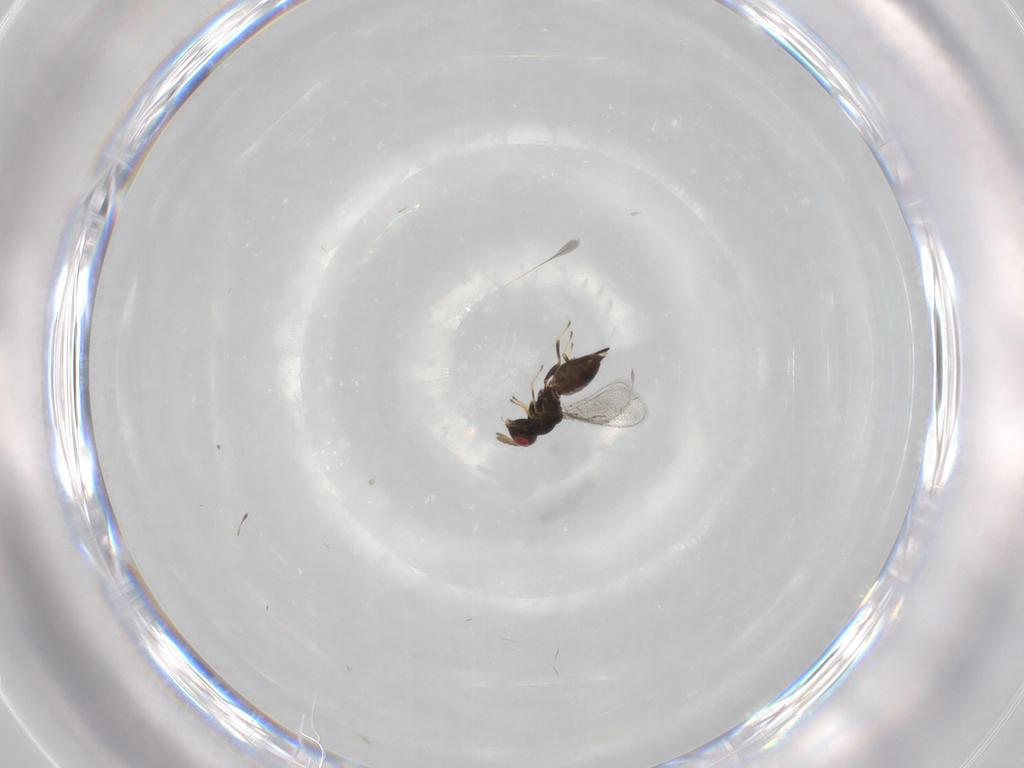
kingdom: Animalia
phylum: Arthropoda
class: Insecta
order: Hymenoptera
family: Eulophidae
